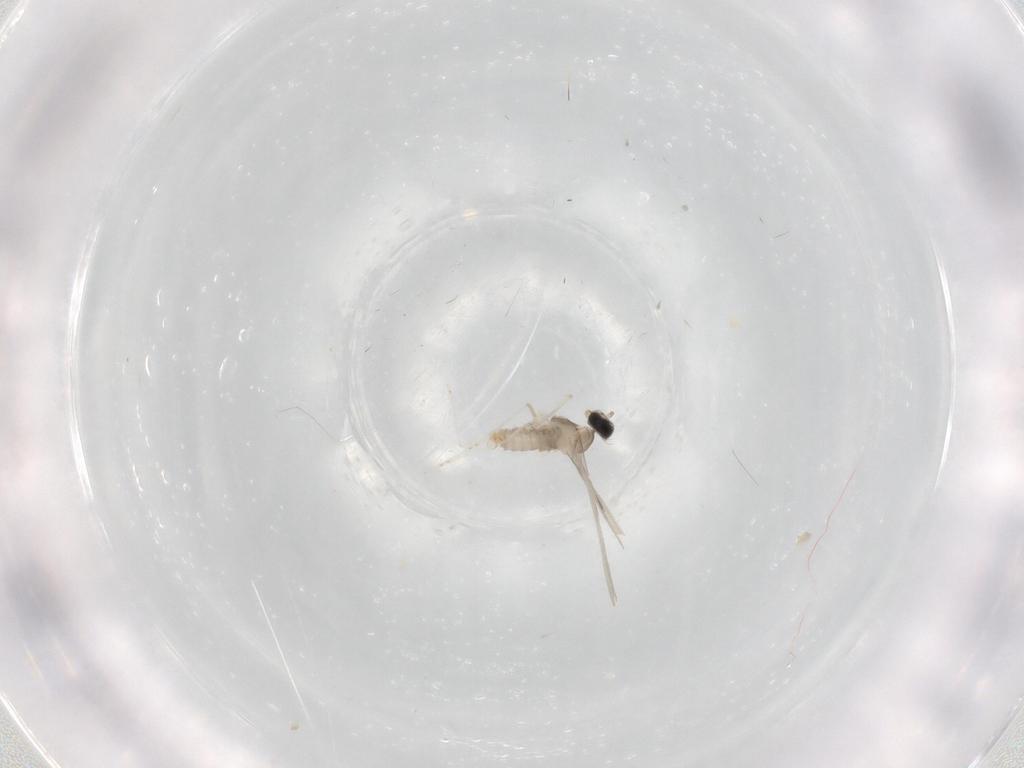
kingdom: Animalia
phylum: Arthropoda
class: Insecta
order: Diptera
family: Cecidomyiidae
